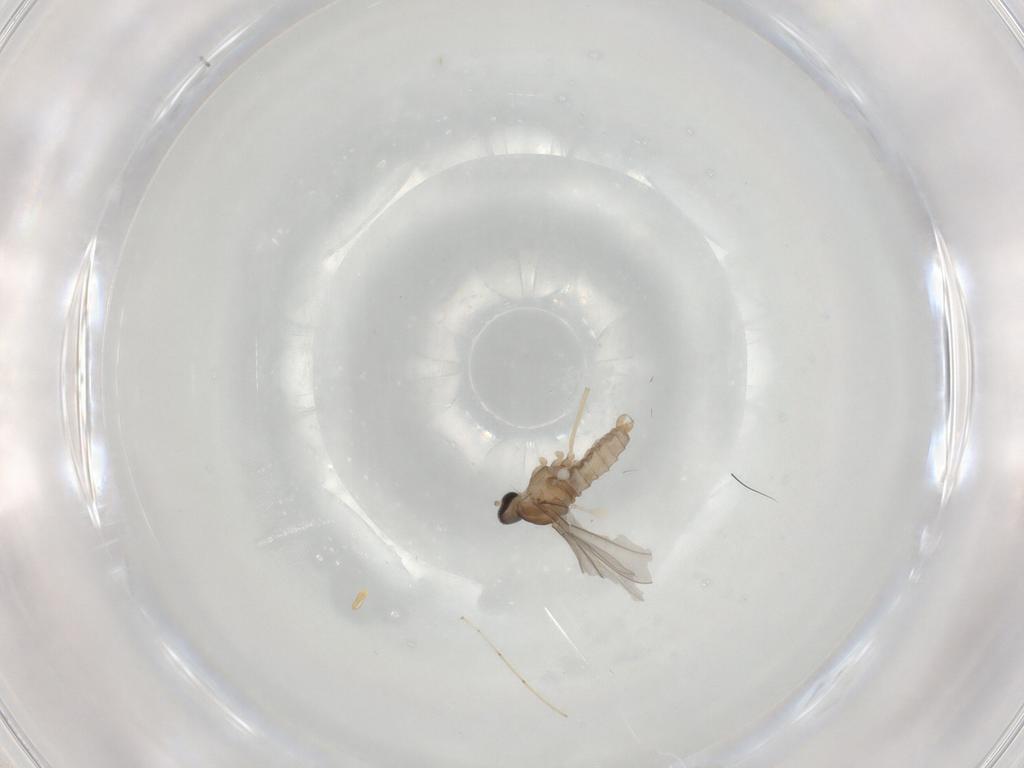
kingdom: Animalia
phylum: Arthropoda
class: Insecta
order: Diptera
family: Cecidomyiidae
